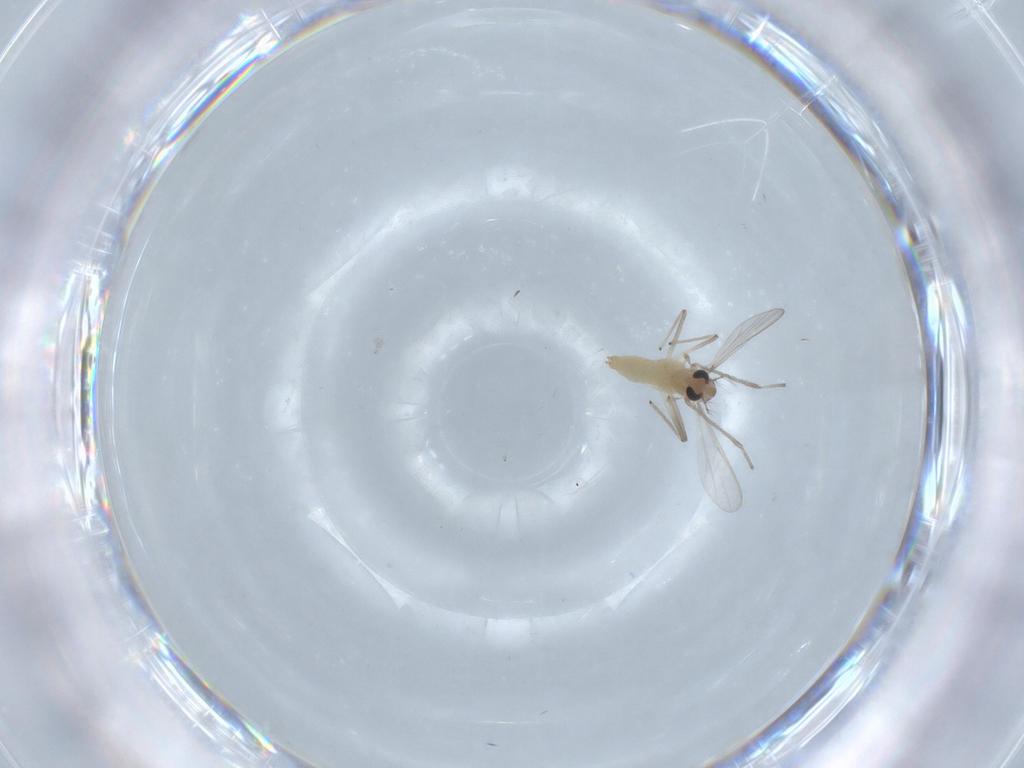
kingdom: Animalia
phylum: Arthropoda
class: Insecta
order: Diptera
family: Chironomidae
